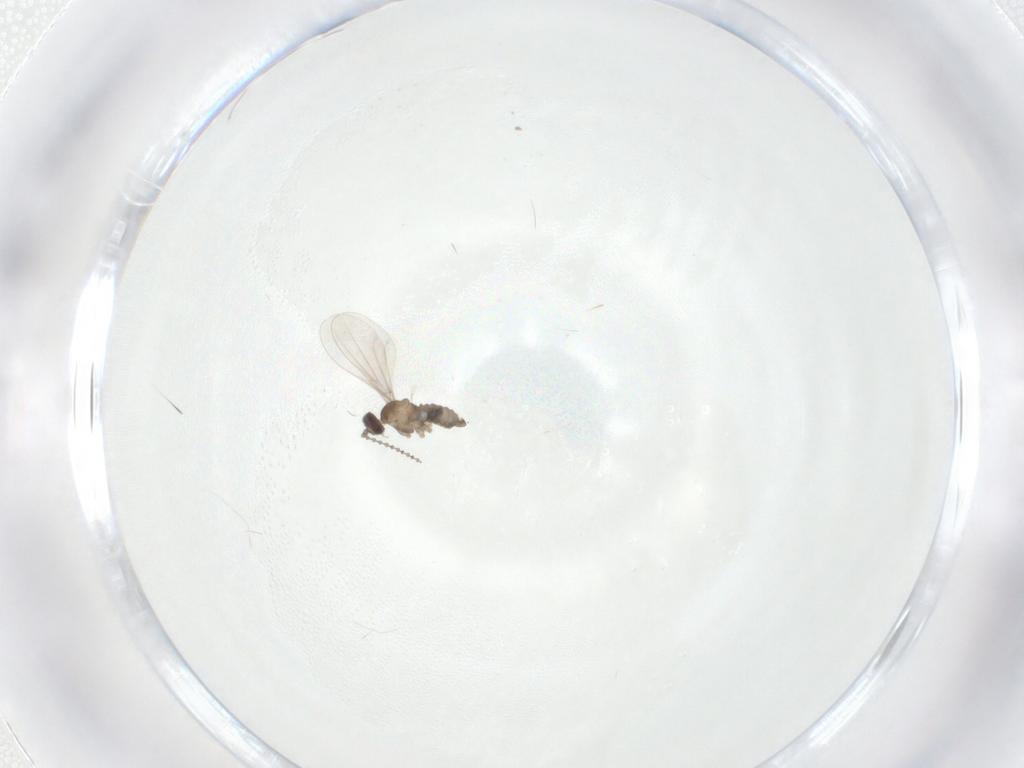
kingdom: Animalia
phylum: Arthropoda
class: Insecta
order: Diptera
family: Cecidomyiidae
